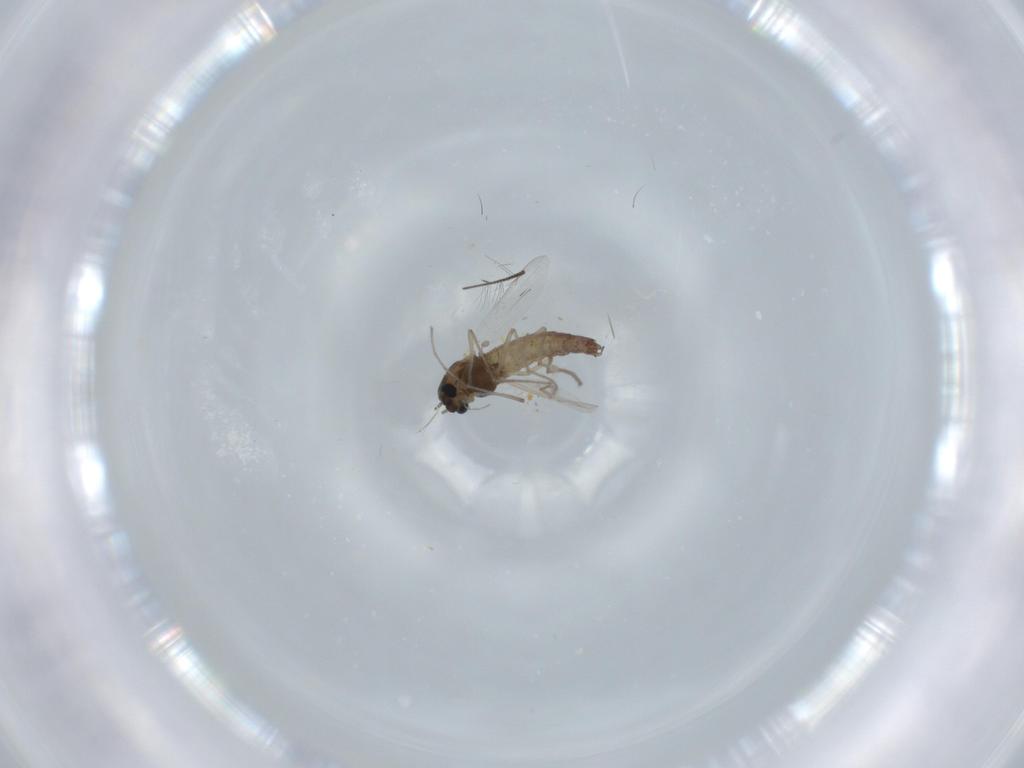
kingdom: Animalia
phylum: Arthropoda
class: Insecta
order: Diptera
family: Chironomidae
